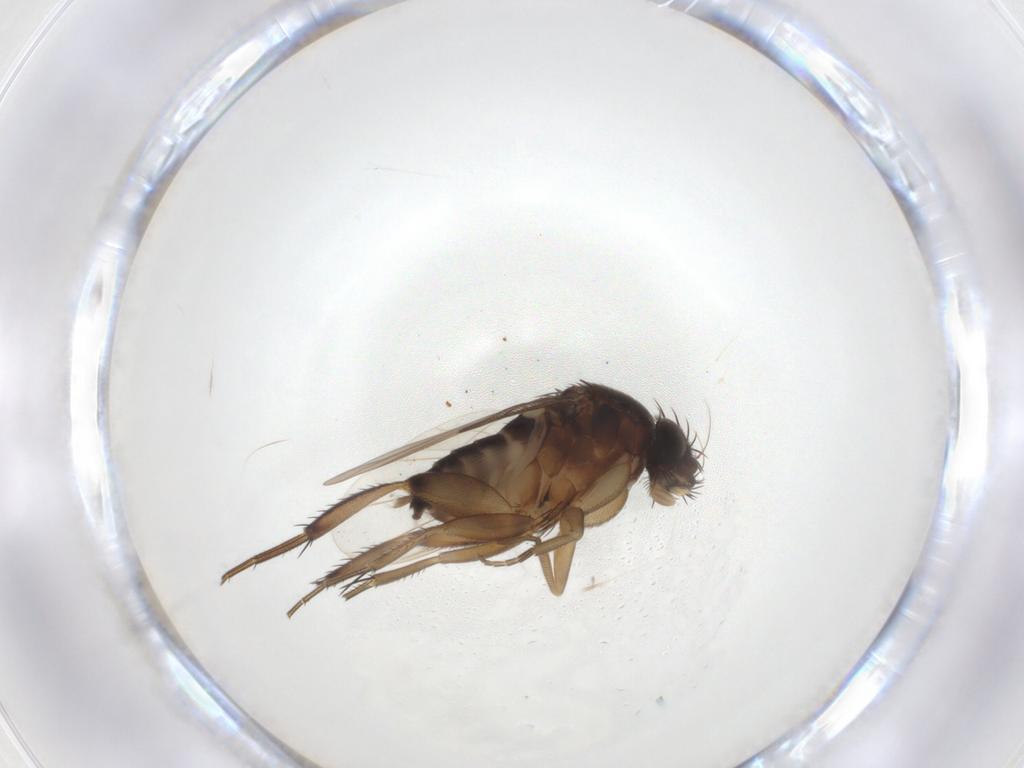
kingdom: Animalia
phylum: Arthropoda
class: Insecta
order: Diptera
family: Phoridae
